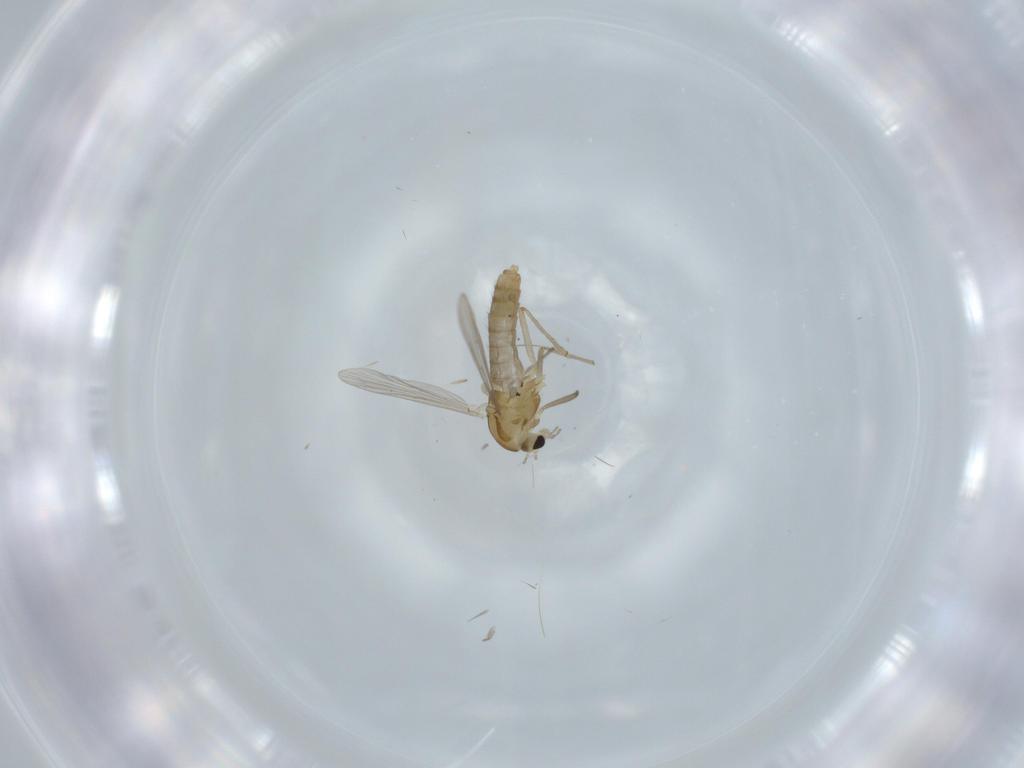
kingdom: Animalia
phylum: Arthropoda
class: Insecta
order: Diptera
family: Chironomidae
